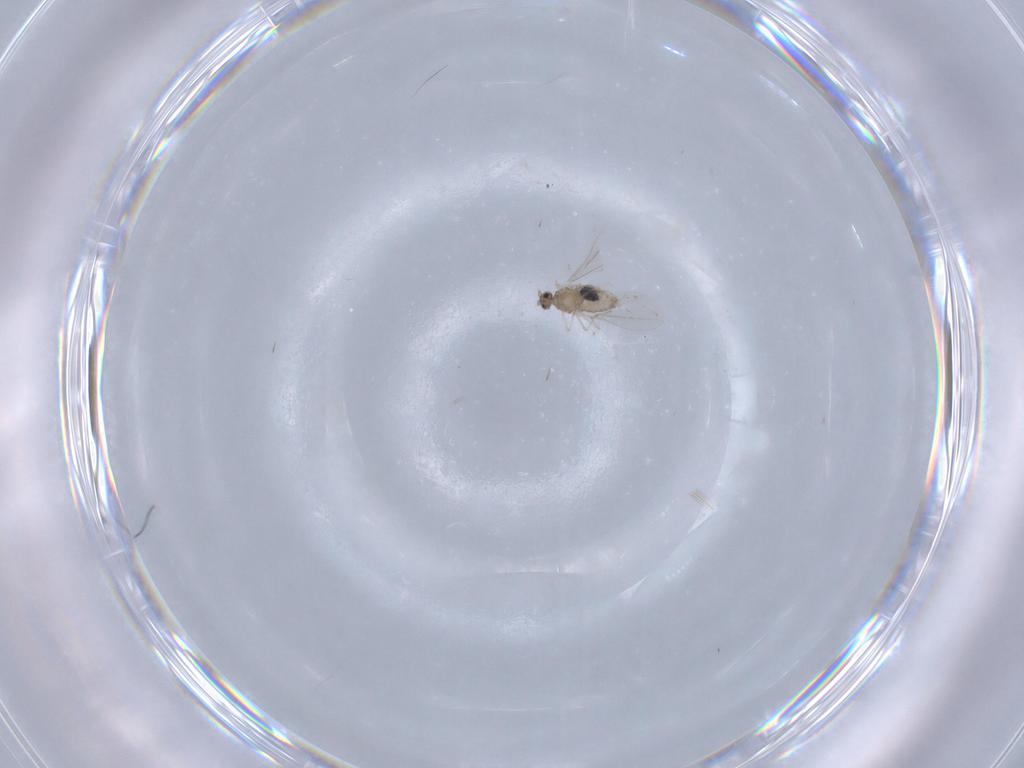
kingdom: Animalia
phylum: Arthropoda
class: Insecta
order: Diptera
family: Cecidomyiidae
